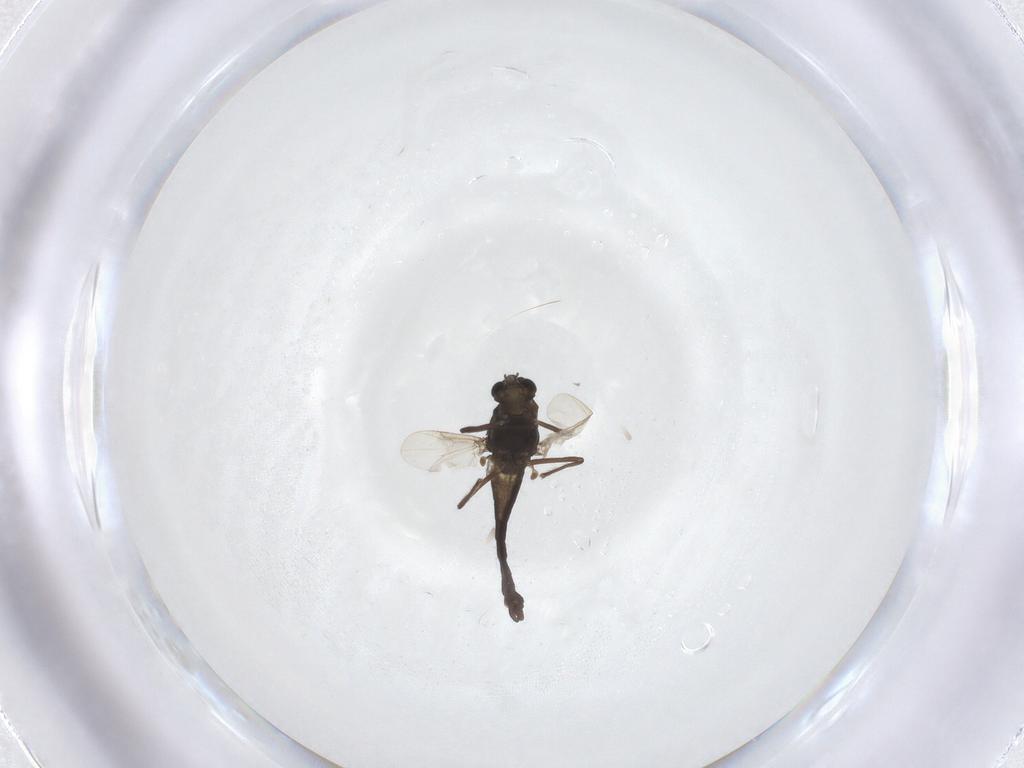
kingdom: Animalia
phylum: Arthropoda
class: Insecta
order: Diptera
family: Chironomidae
